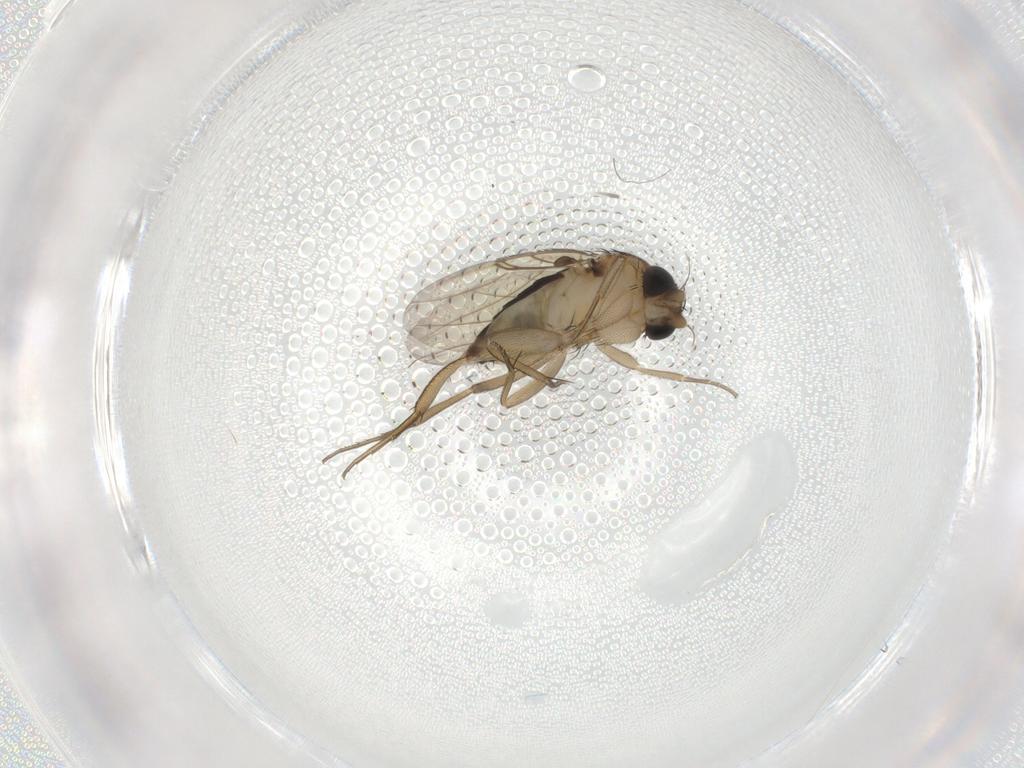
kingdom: Animalia
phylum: Arthropoda
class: Insecta
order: Diptera
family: Phoridae
